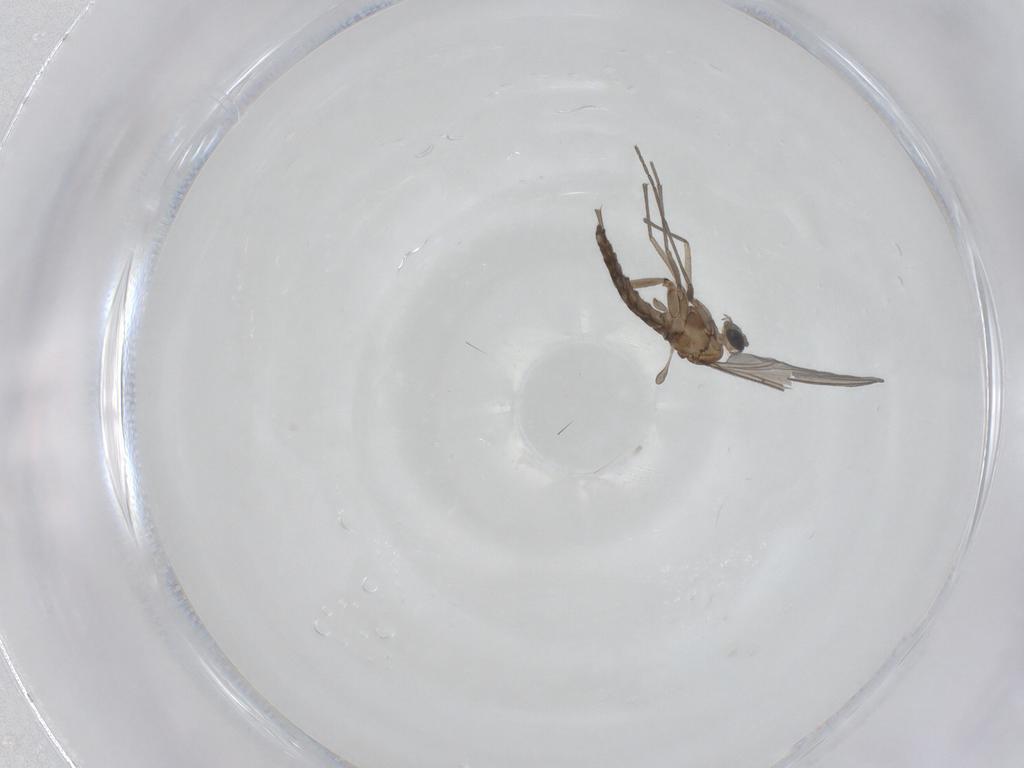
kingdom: Animalia
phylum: Arthropoda
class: Insecta
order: Diptera
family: Sciaridae
